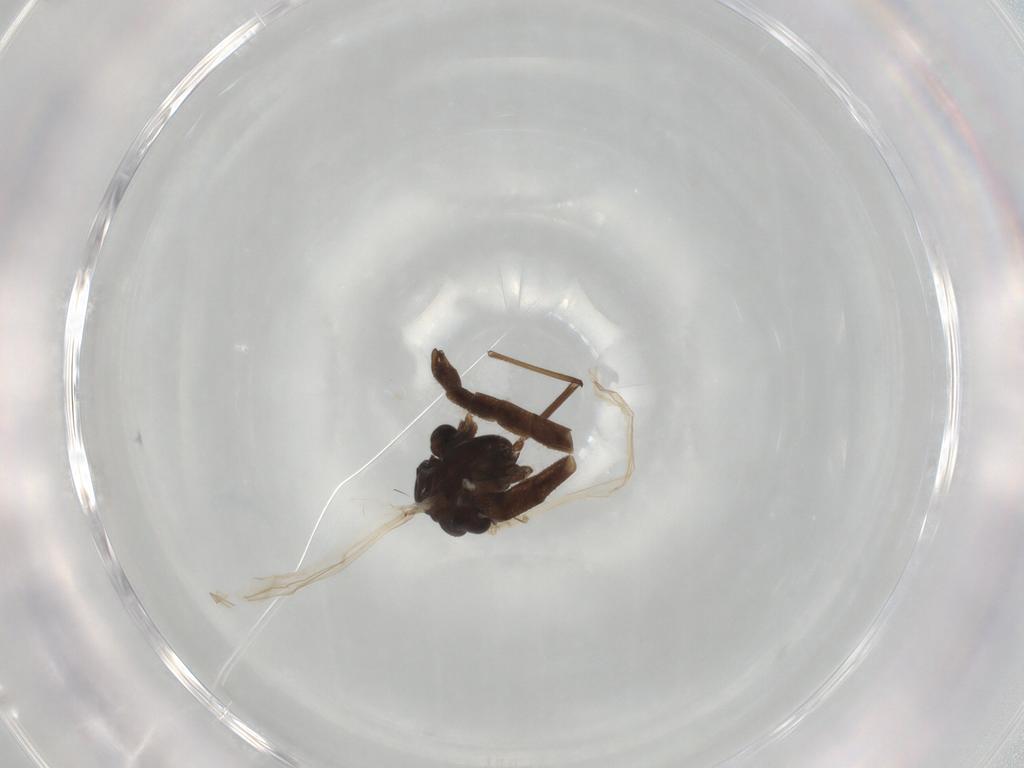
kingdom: Animalia
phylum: Arthropoda
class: Insecta
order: Diptera
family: Chironomidae
